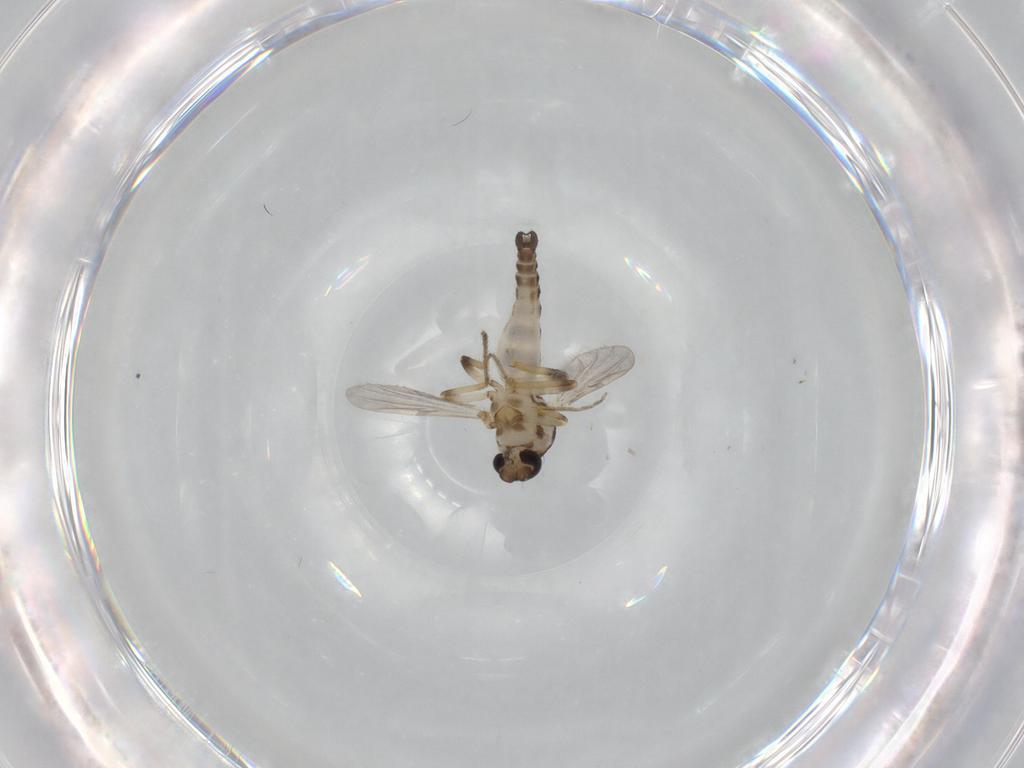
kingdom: Animalia
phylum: Arthropoda
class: Insecta
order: Diptera
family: Ceratopogonidae
